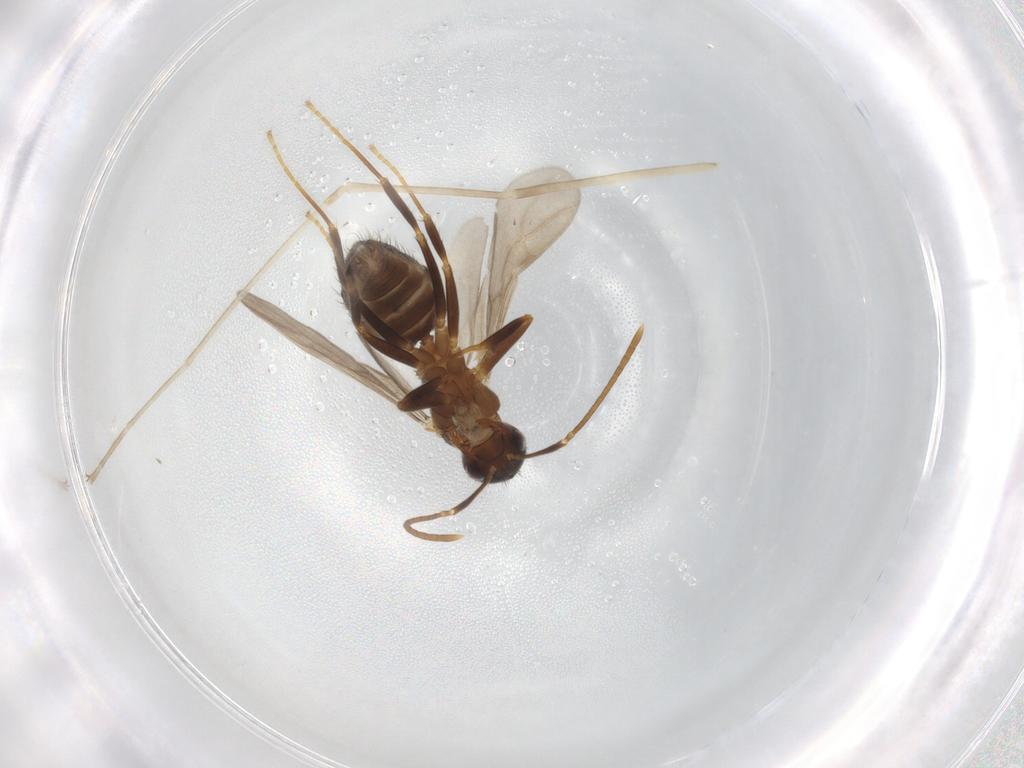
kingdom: Animalia
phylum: Arthropoda
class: Insecta
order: Hymenoptera
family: Formicidae
